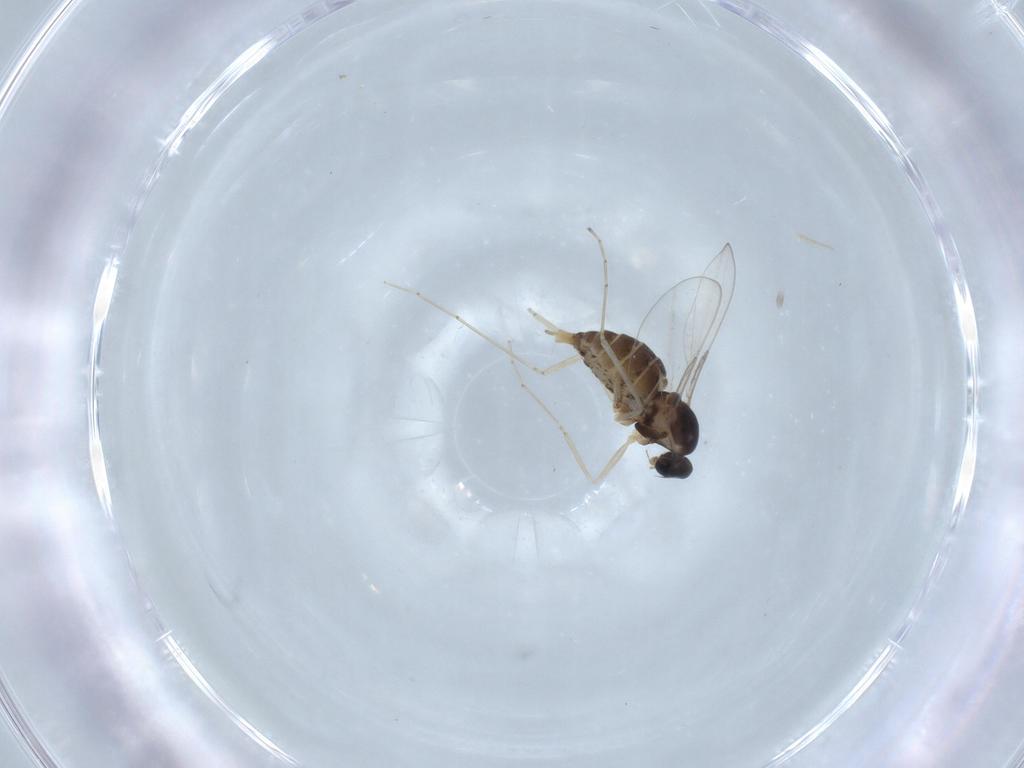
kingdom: Animalia
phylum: Arthropoda
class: Insecta
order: Diptera
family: Cecidomyiidae
